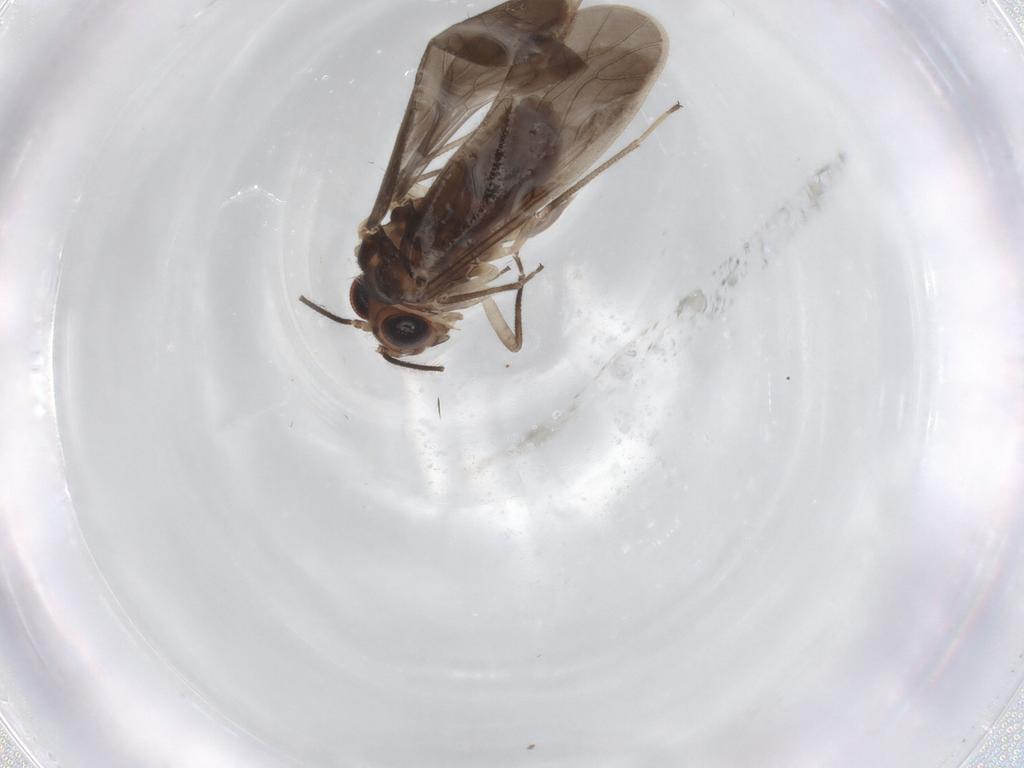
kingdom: Animalia
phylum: Arthropoda
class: Insecta
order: Psocodea
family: Caeciliusidae
